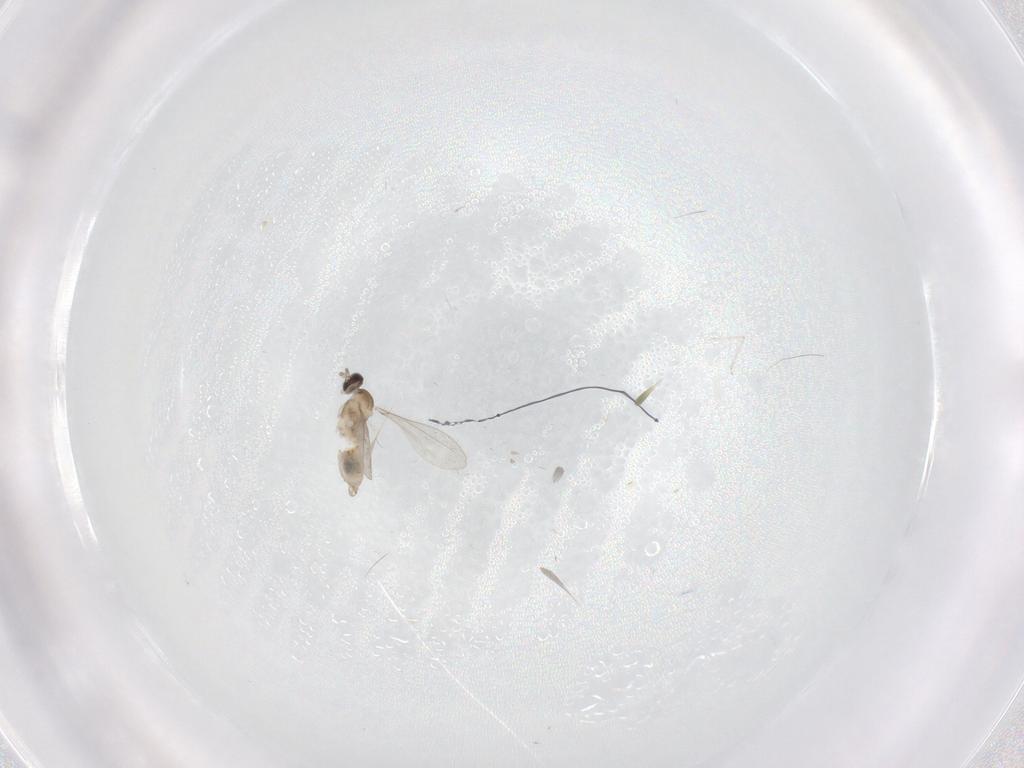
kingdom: Animalia
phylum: Arthropoda
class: Insecta
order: Diptera
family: Cecidomyiidae
